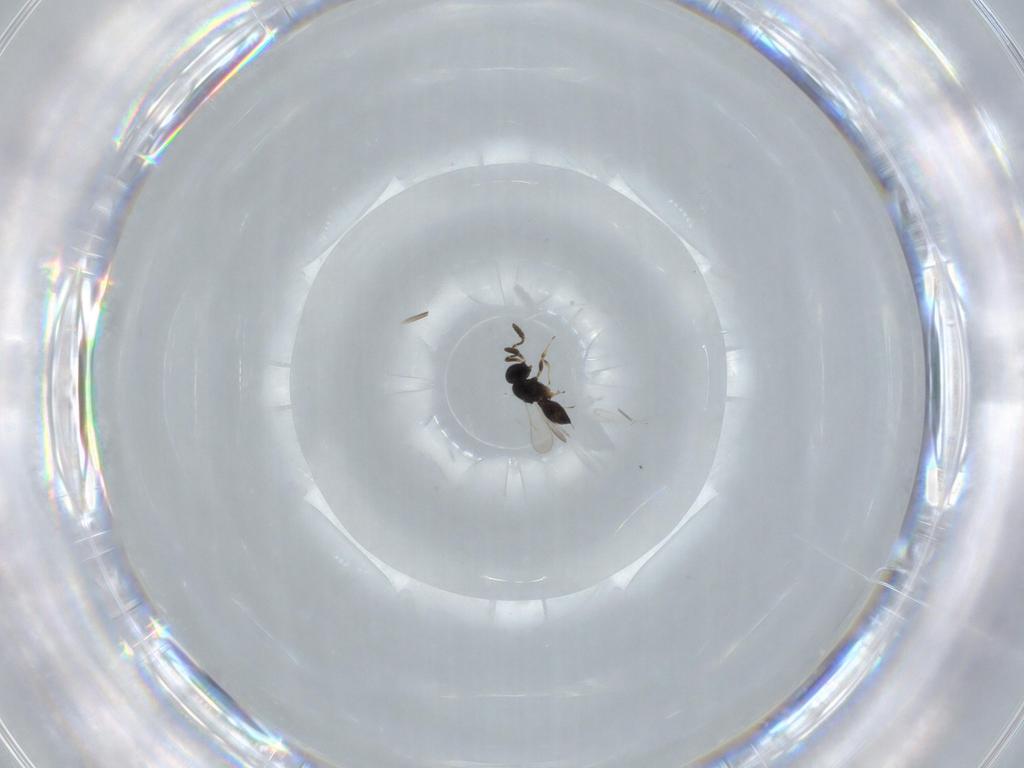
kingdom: Animalia
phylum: Arthropoda
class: Insecta
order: Hymenoptera
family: Scelionidae
